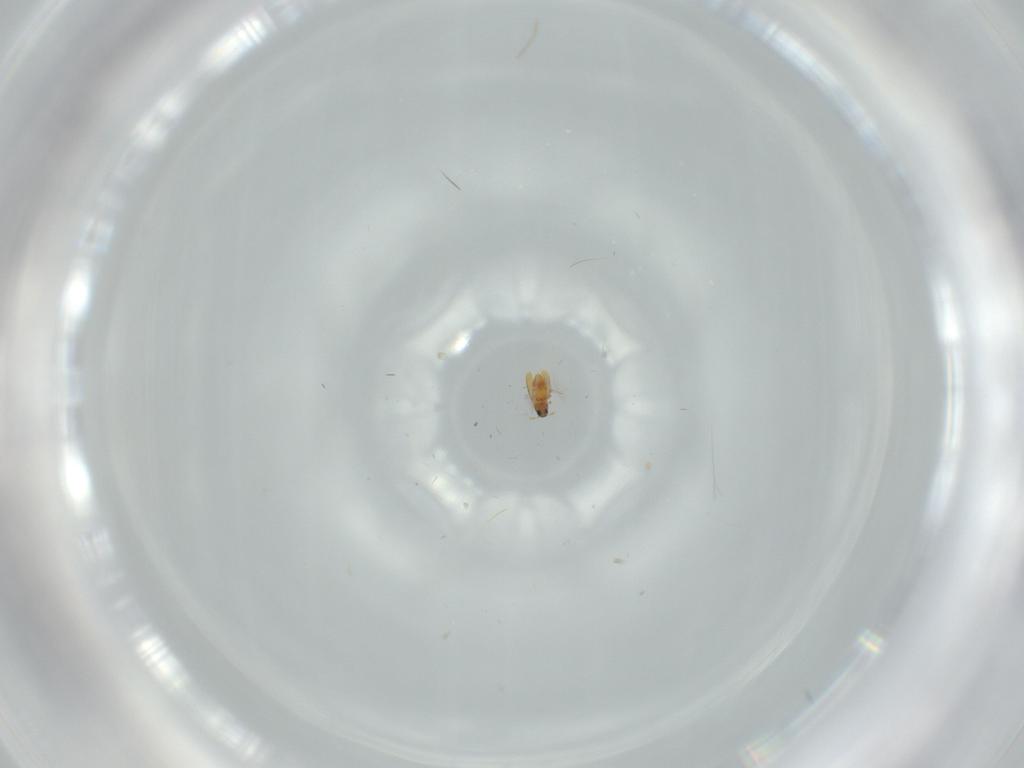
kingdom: Animalia
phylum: Arthropoda
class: Insecta
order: Coleoptera
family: Ptiliidae
